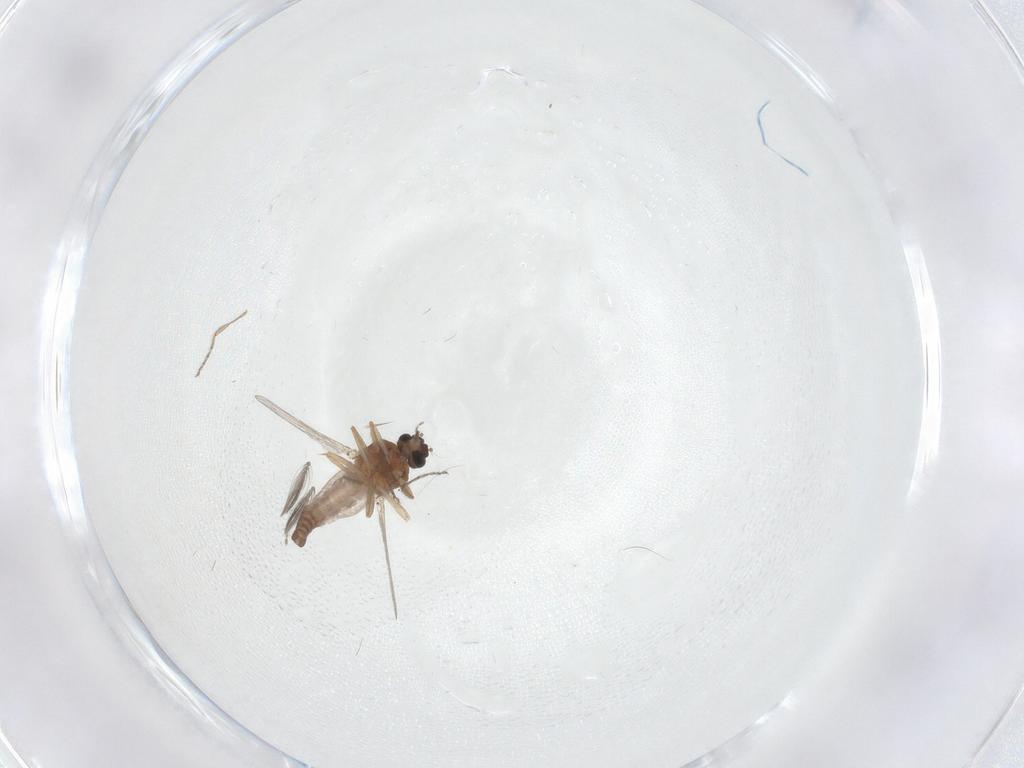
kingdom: Animalia
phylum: Arthropoda
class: Insecta
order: Diptera
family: Ceratopogonidae
